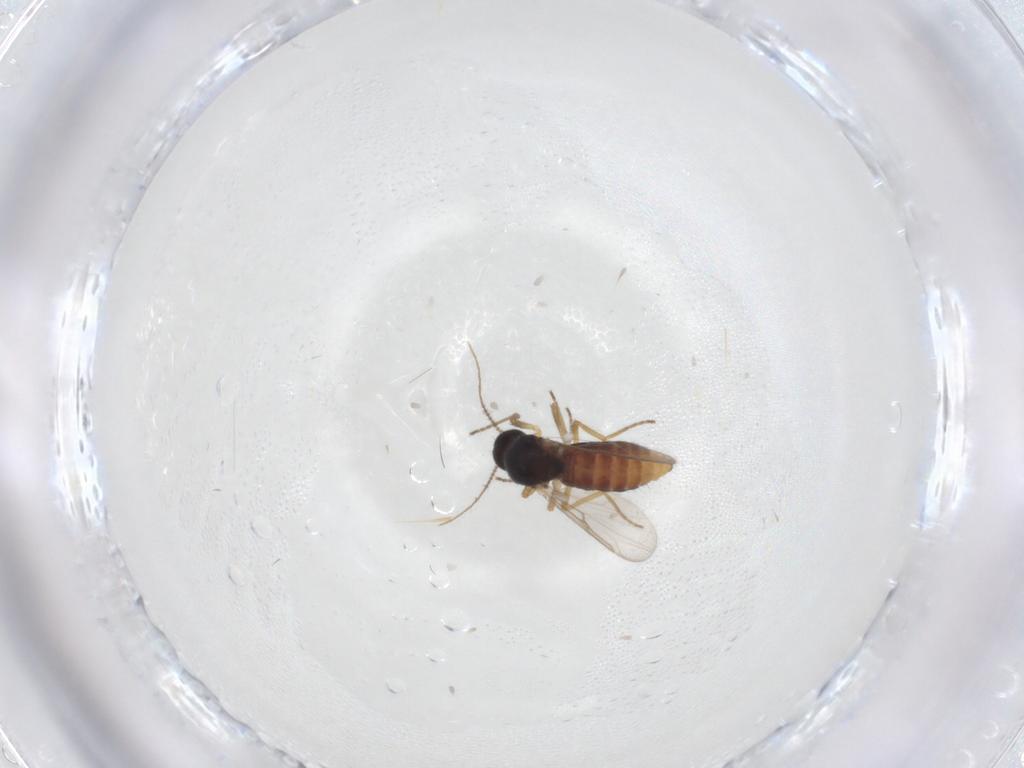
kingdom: Animalia
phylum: Arthropoda
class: Insecta
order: Diptera
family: Ceratopogonidae
